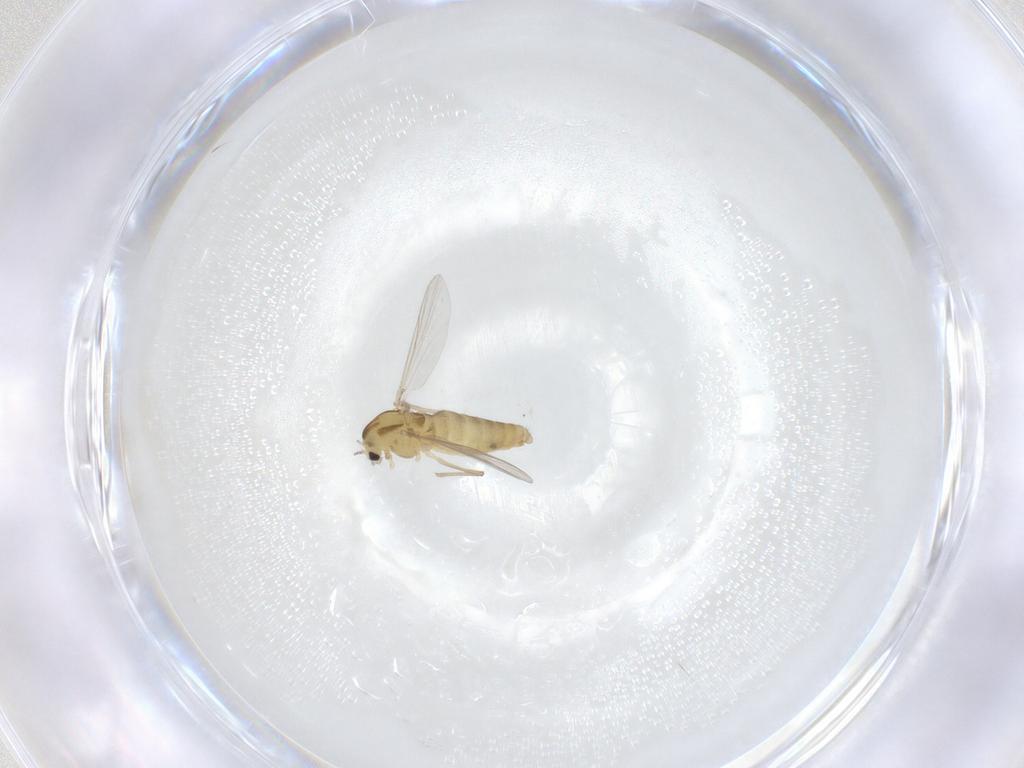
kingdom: Animalia
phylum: Arthropoda
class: Insecta
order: Diptera
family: Chironomidae
